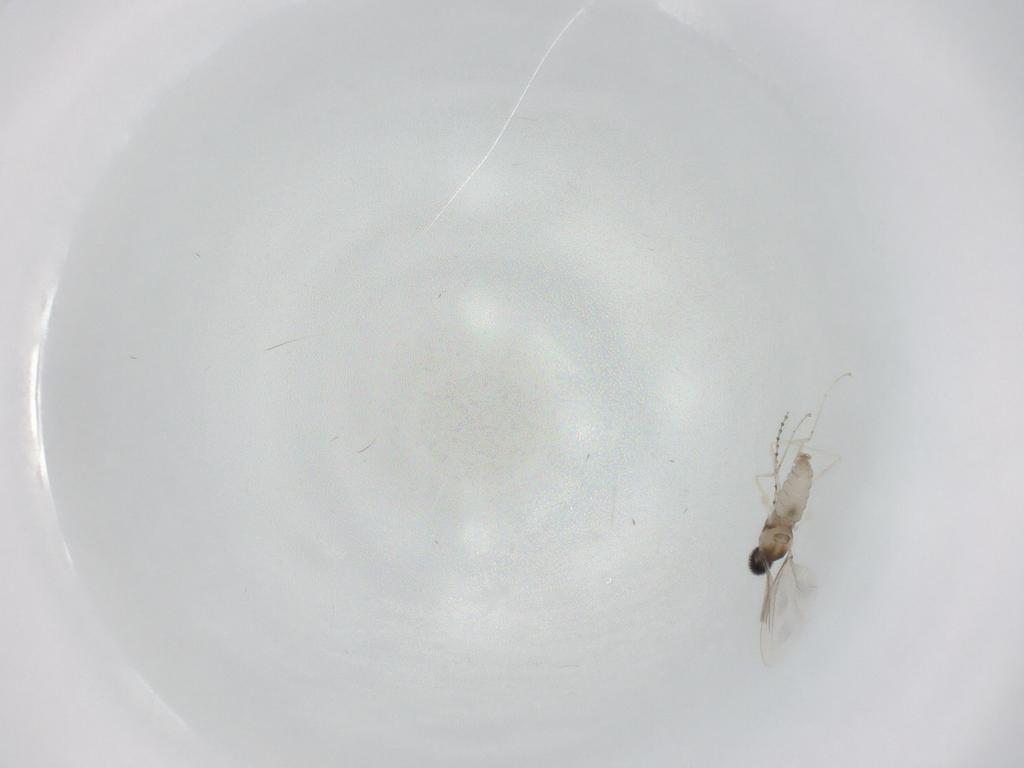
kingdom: Animalia
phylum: Arthropoda
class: Insecta
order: Diptera
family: Cecidomyiidae
